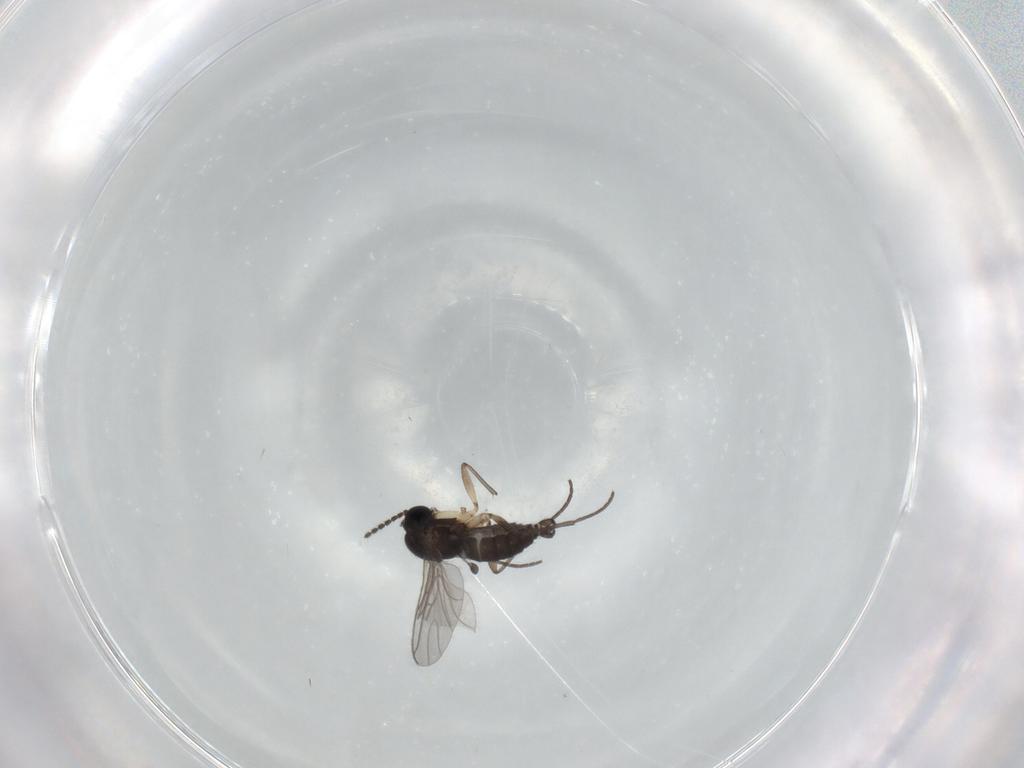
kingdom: Animalia
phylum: Arthropoda
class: Insecta
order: Diptera
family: Sciaridae
